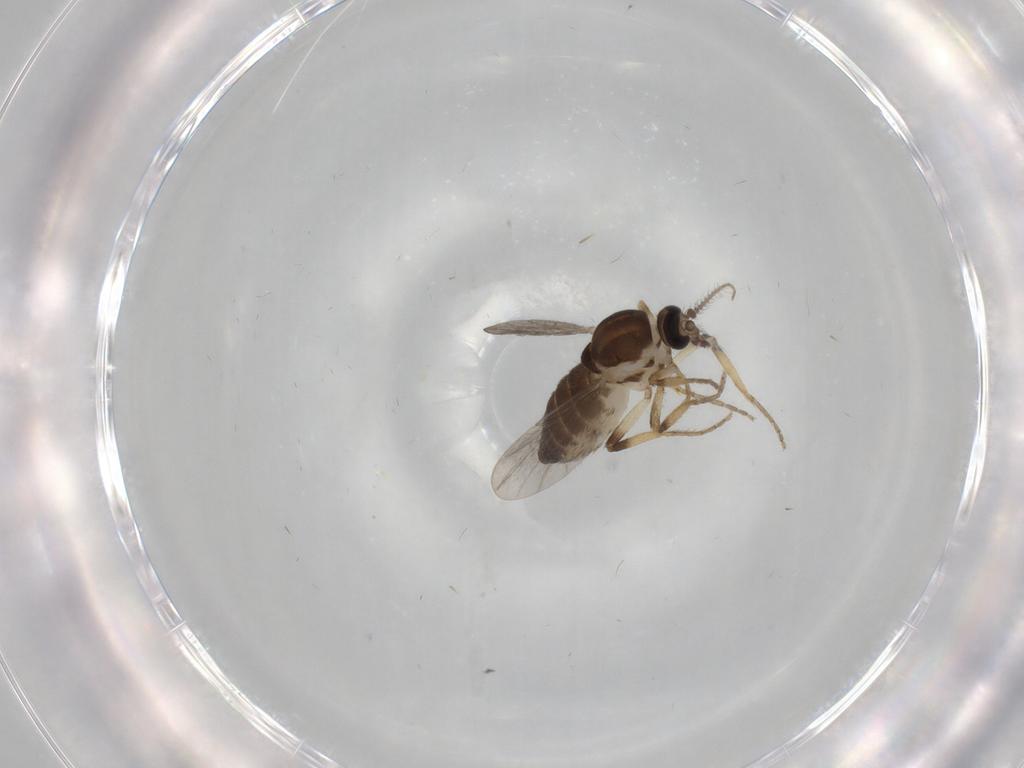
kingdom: Animalia
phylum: Arthropoda
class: Insecta
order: Diptera
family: Ceratopogonidae
